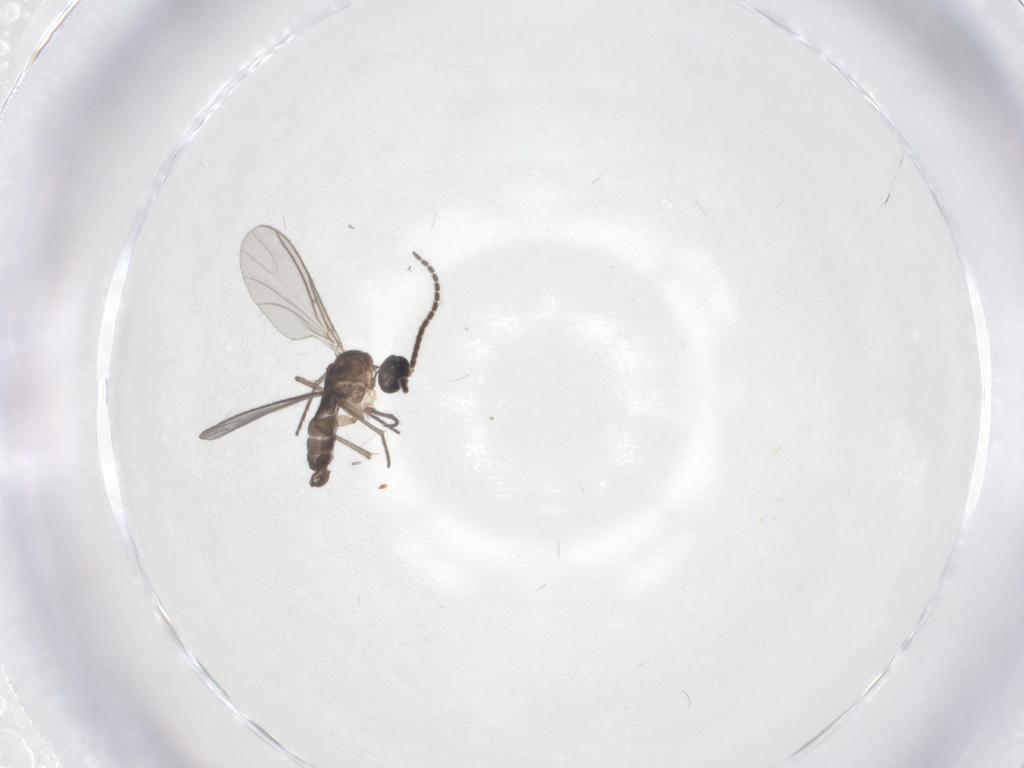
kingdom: Animalia
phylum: Arthropoda
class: Insecta
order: Diptera
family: Sciaridae
